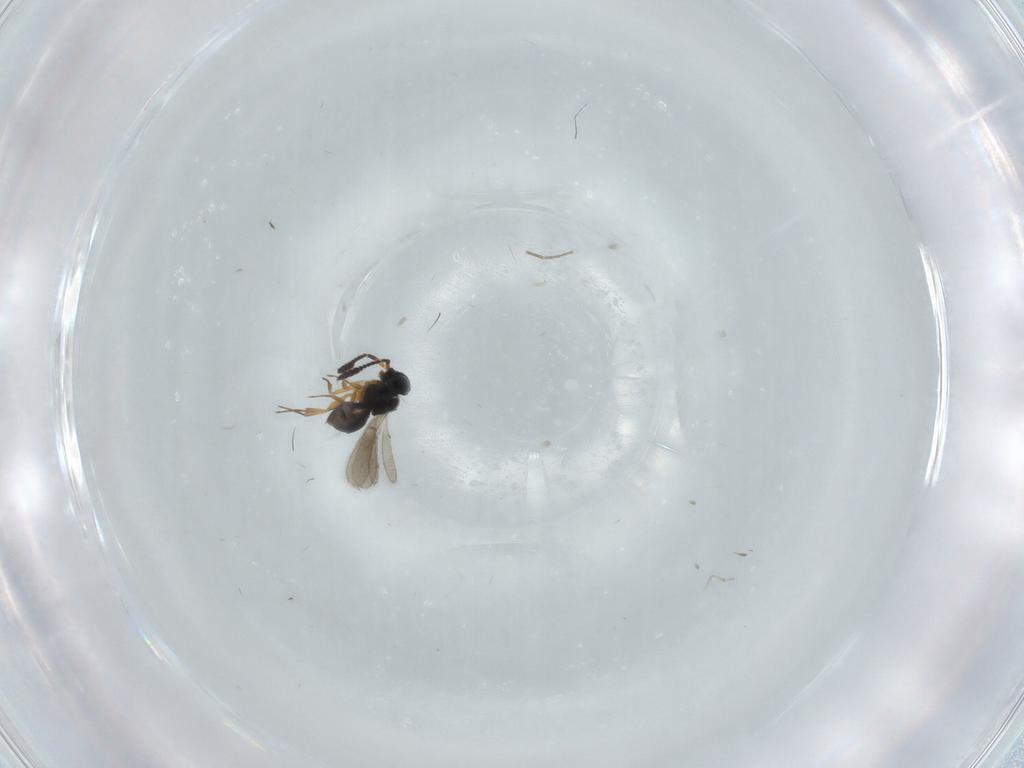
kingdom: Animalia
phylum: Arthropoda
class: Insecta
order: Hymenoptera
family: Scelionidae
